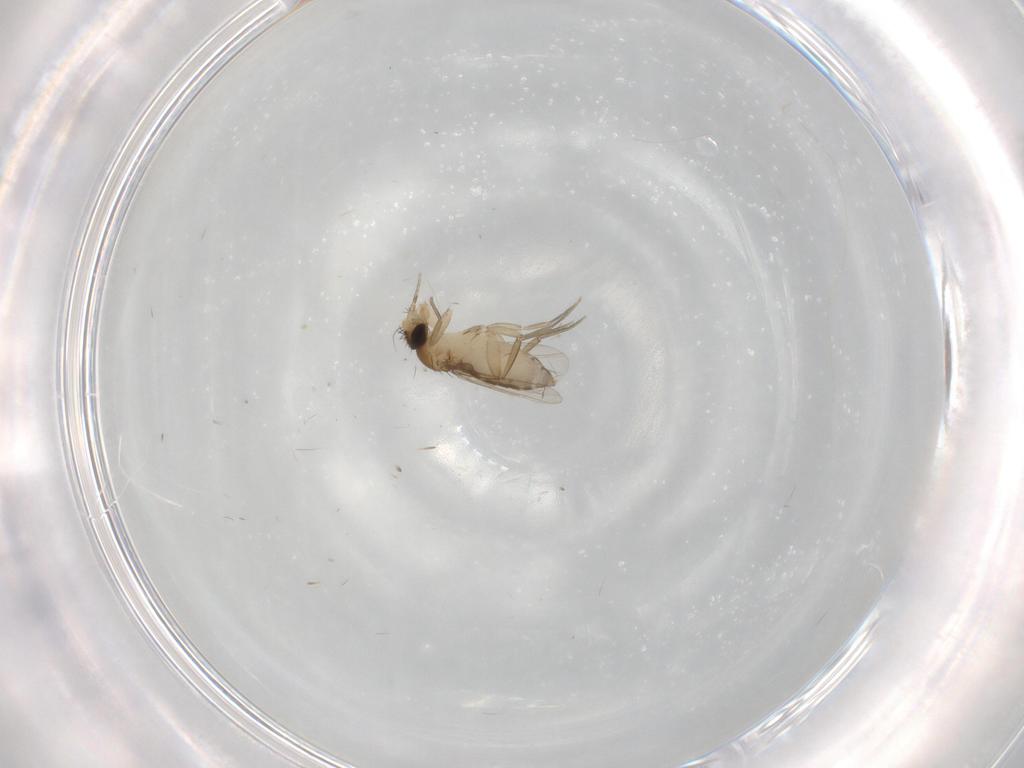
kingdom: Animalia
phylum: Arthropoda
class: Insecta
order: Diptera
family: Phoridae
